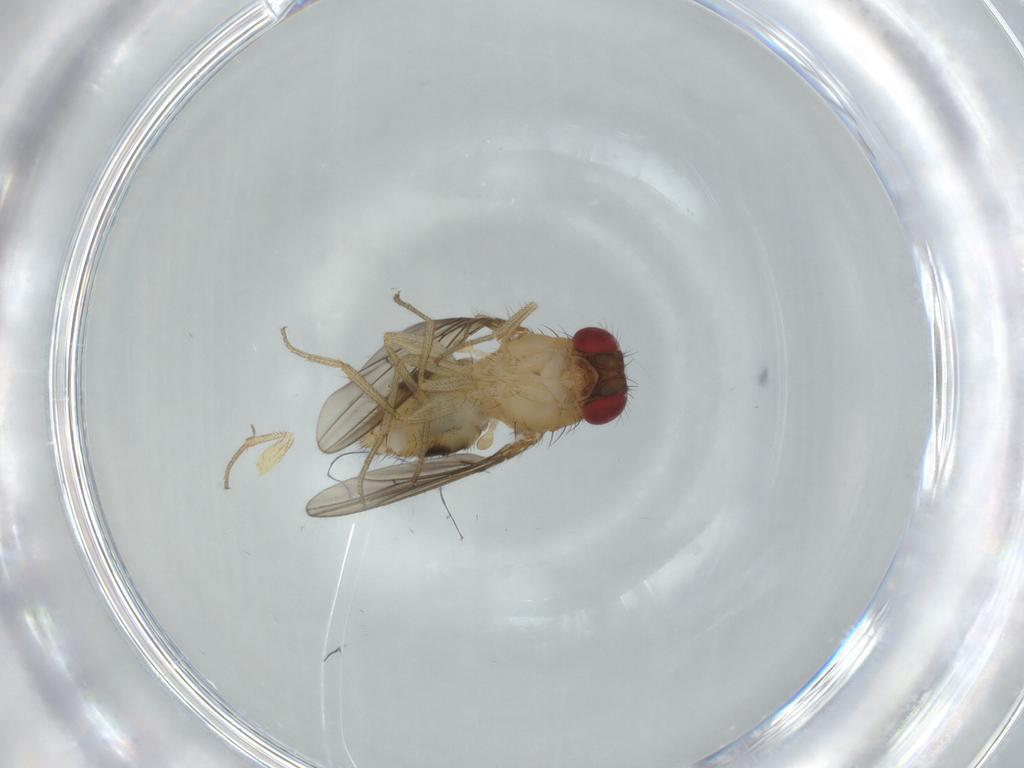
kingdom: Animalia
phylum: Arthropoda
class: Insecta
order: Diptera
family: Drosophilidae
